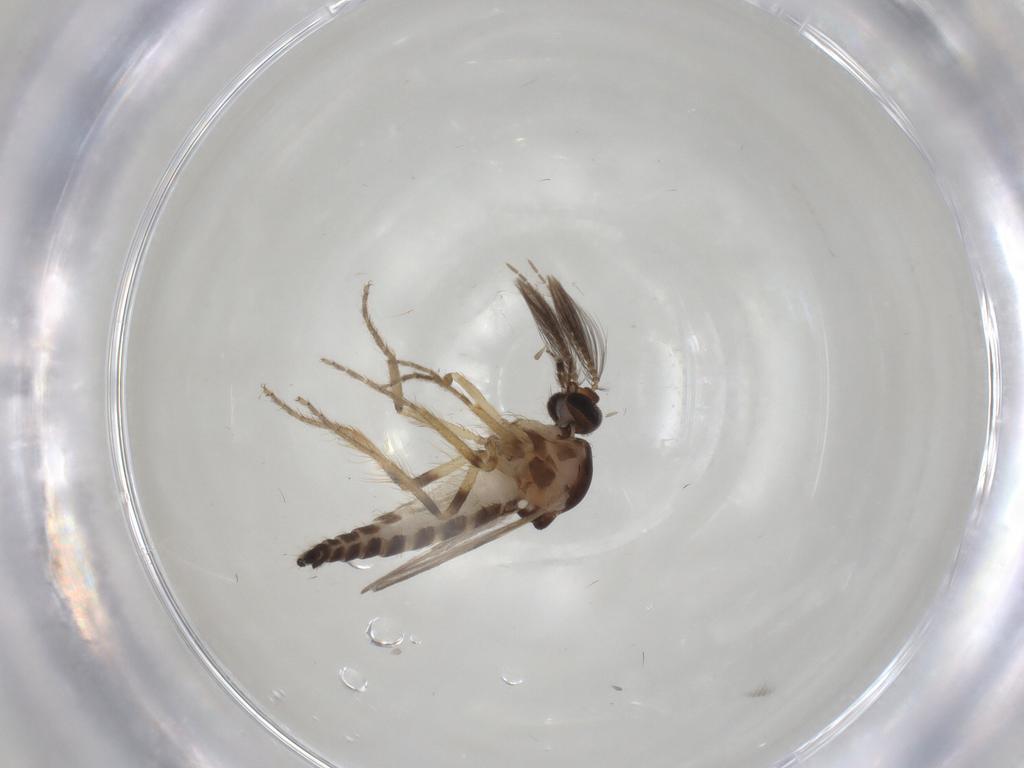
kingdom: Animalia
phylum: Arthropoda
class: Insecta
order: Diptera
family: Ceratopogonidae
